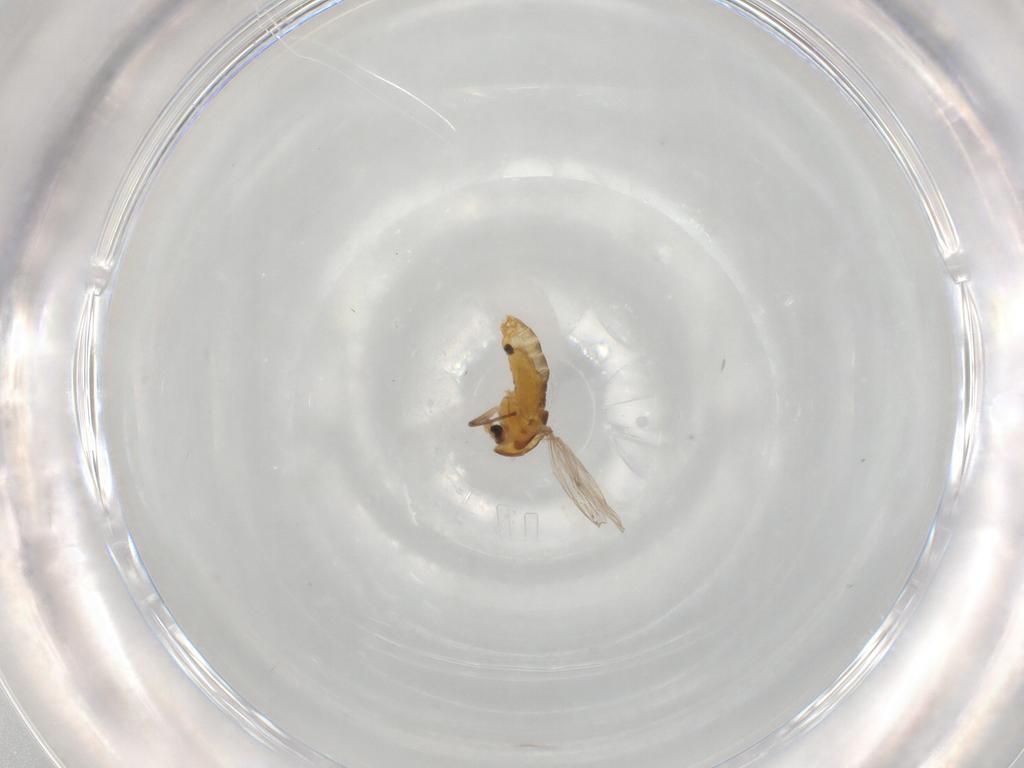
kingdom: Animalia
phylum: Arthropoda
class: Insecta
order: Diptera
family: Chironomidae
